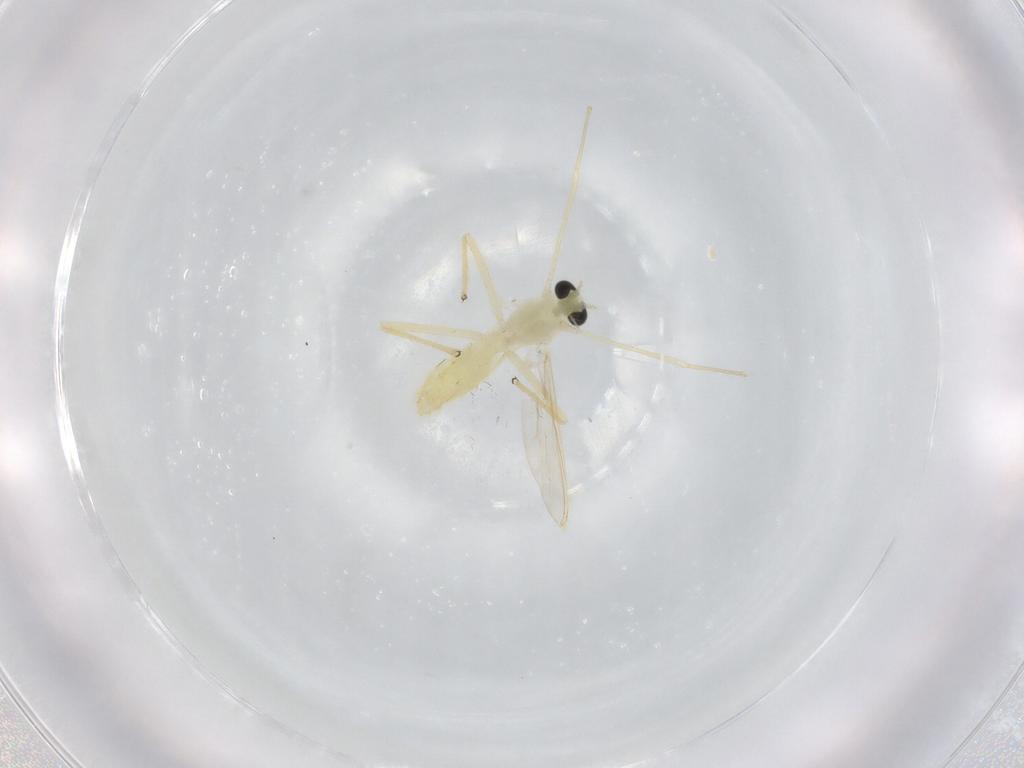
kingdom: Animalia
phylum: Arthropoda
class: Insecta
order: Diptera
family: Chironomidae
